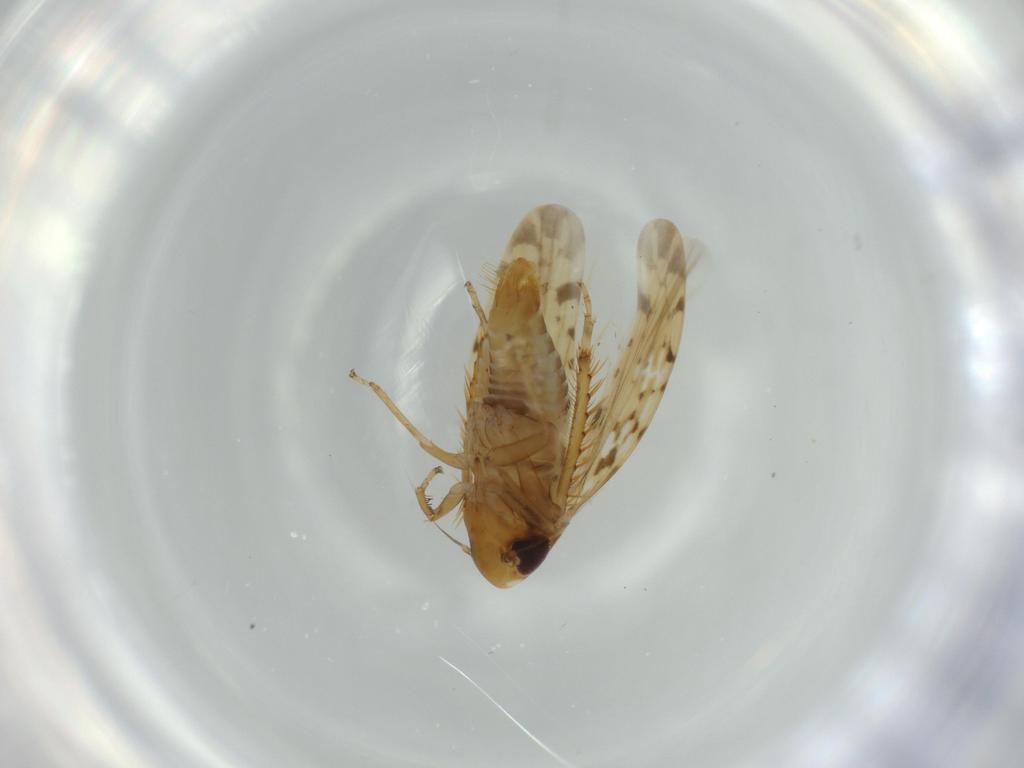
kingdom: Animalia
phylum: Arthropoda
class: Insecta
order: Hemiptera
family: Cicadellidae
